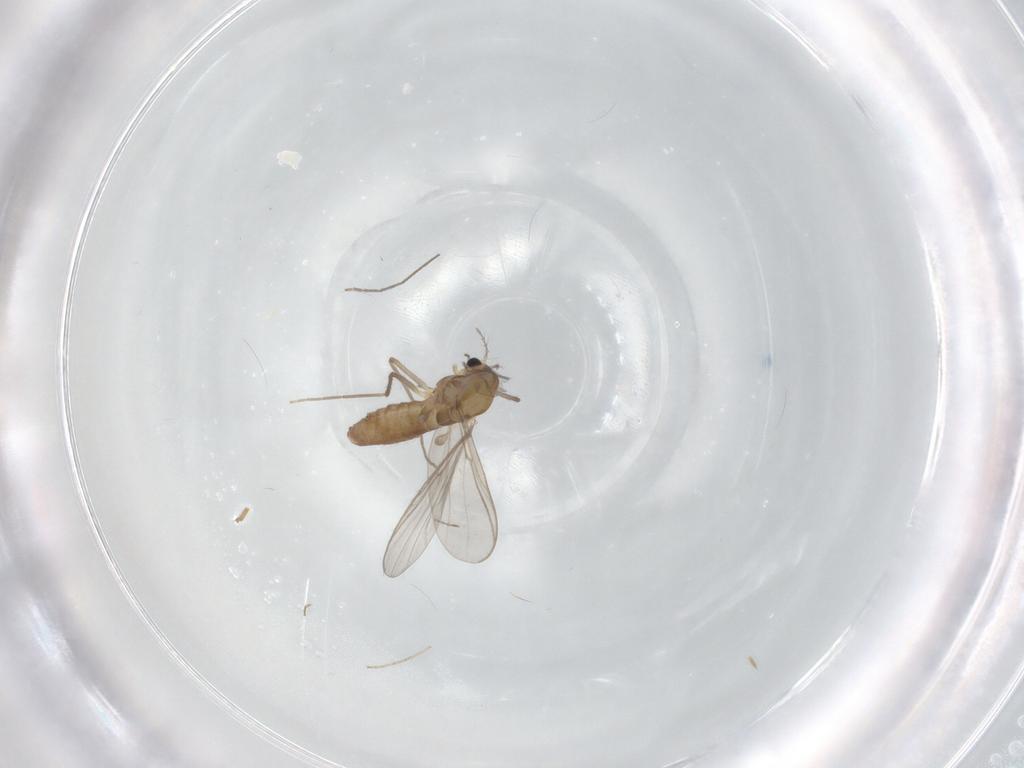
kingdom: Animalia
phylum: Arthropoda
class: Insecta
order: Diptera
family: Chironomidae
